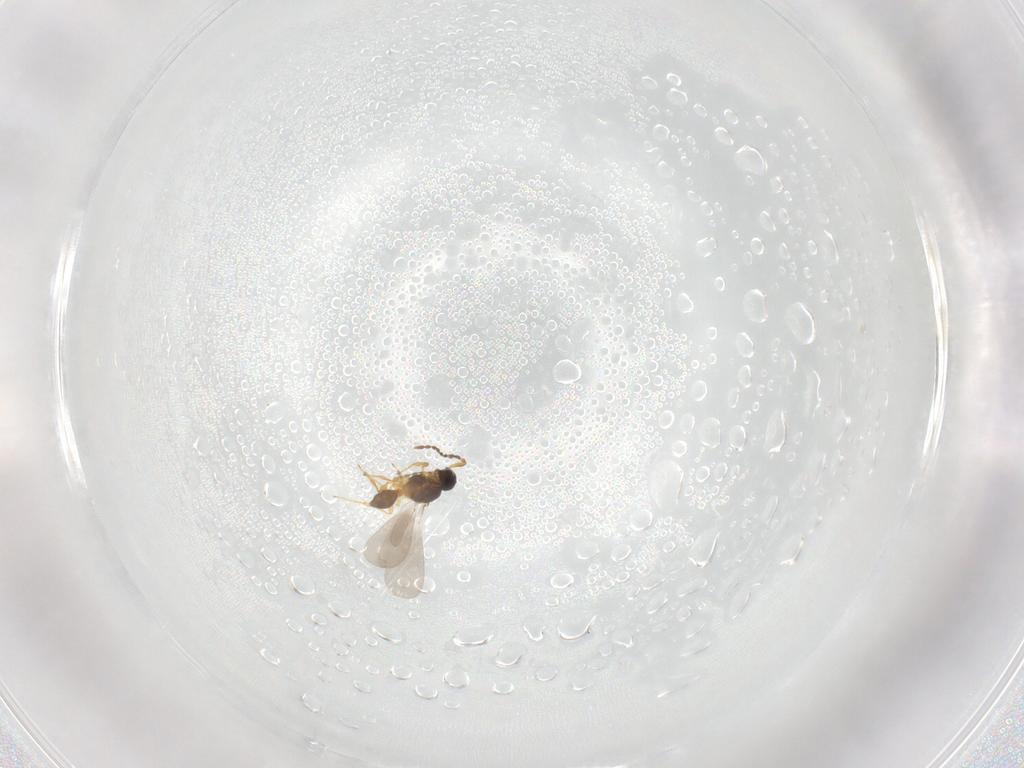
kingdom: Animalia
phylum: Arthropoda
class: Insecta
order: Hymenoptera
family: Platygastridae
